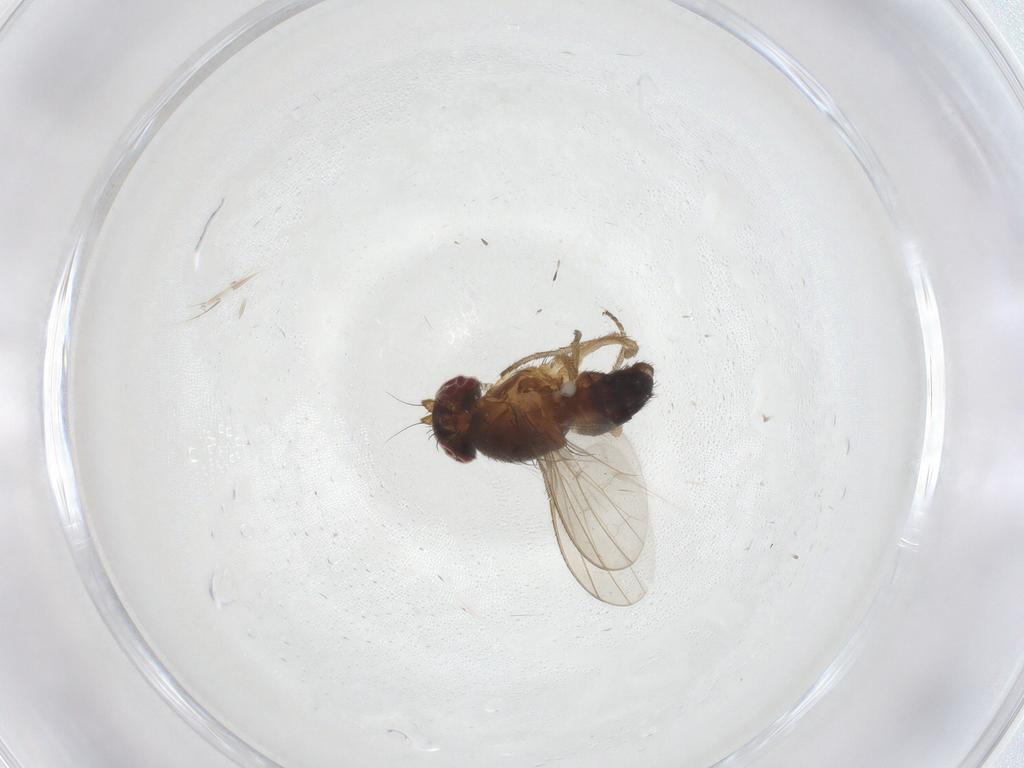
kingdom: Animalia
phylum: Arthropoda
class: Insecta
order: Diptera
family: Heleomyzidae
